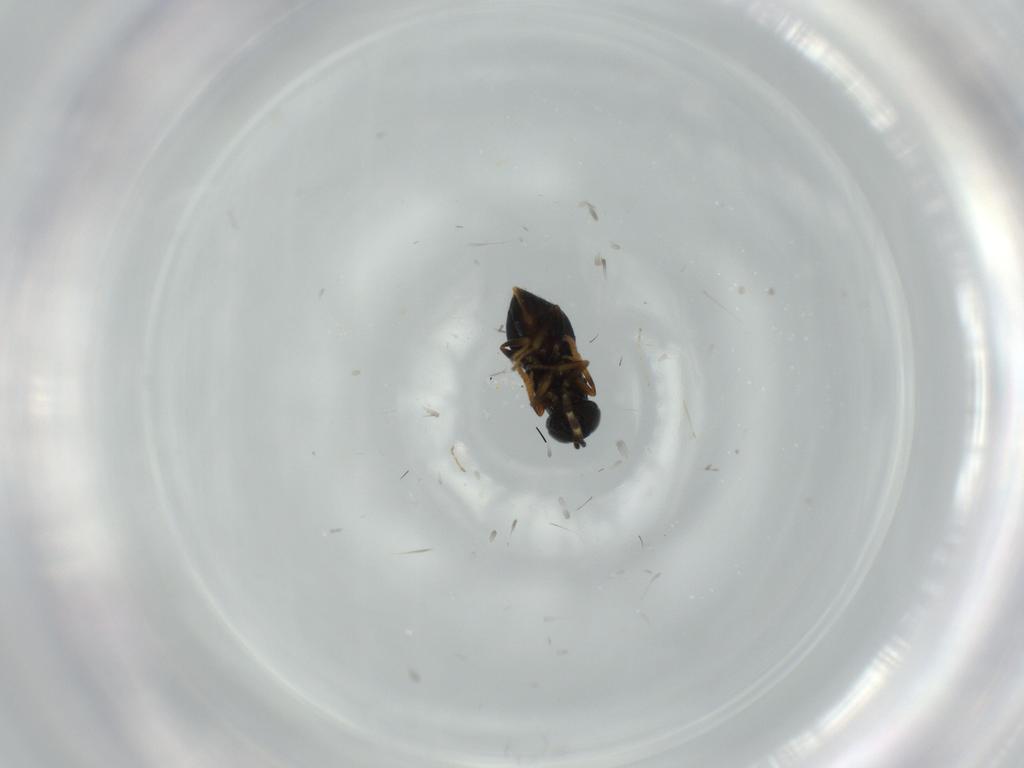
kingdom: Animalia
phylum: Arthropoda
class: Insecta
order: Hymenoptera
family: Encyrtidae
